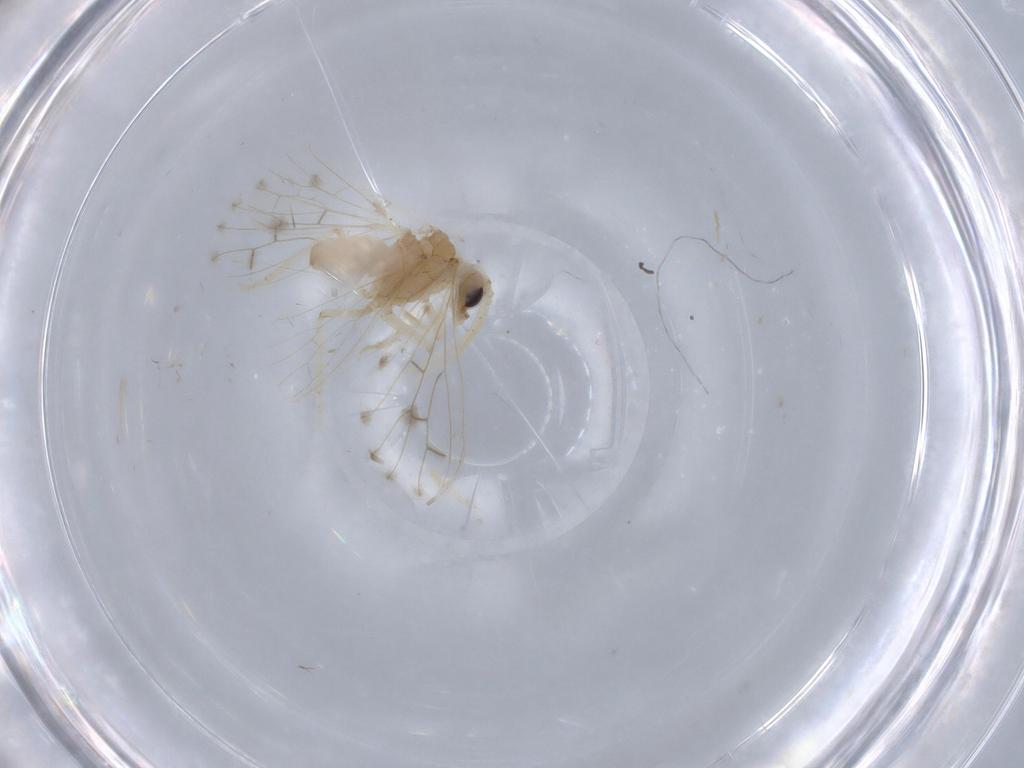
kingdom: Animalia
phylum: Arthropoda
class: Insecta
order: Neuroptera
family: Coniopterygidae
